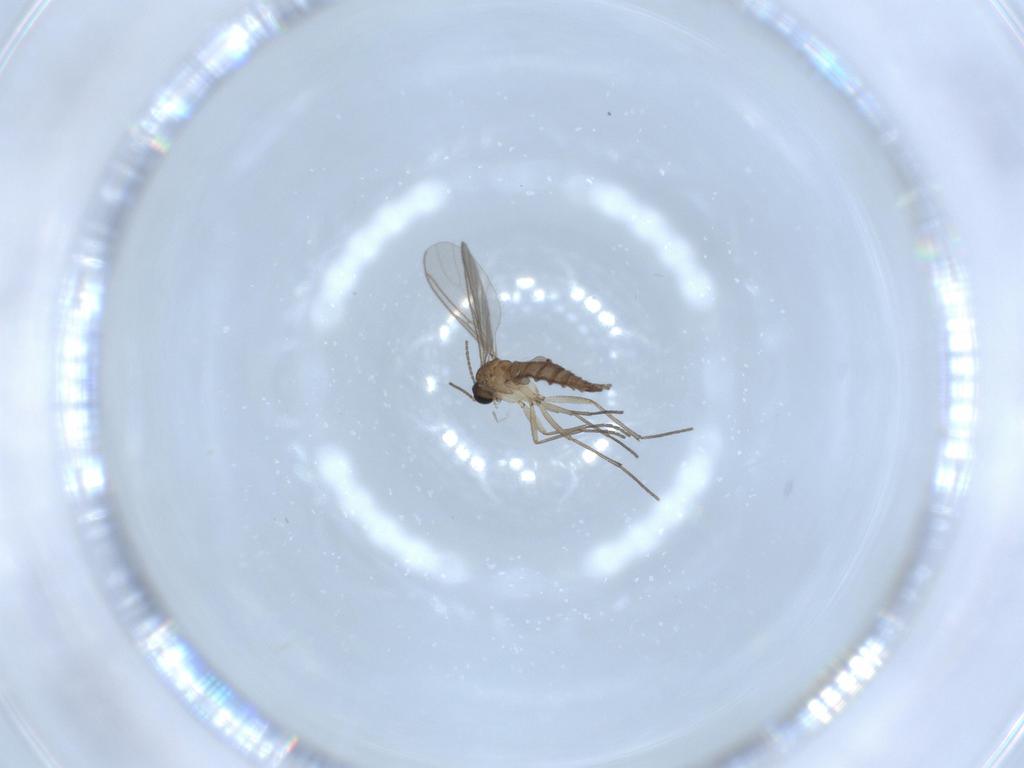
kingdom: Animalia
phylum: Arthropoda
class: Insecta
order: Diptera
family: Sciaridae
